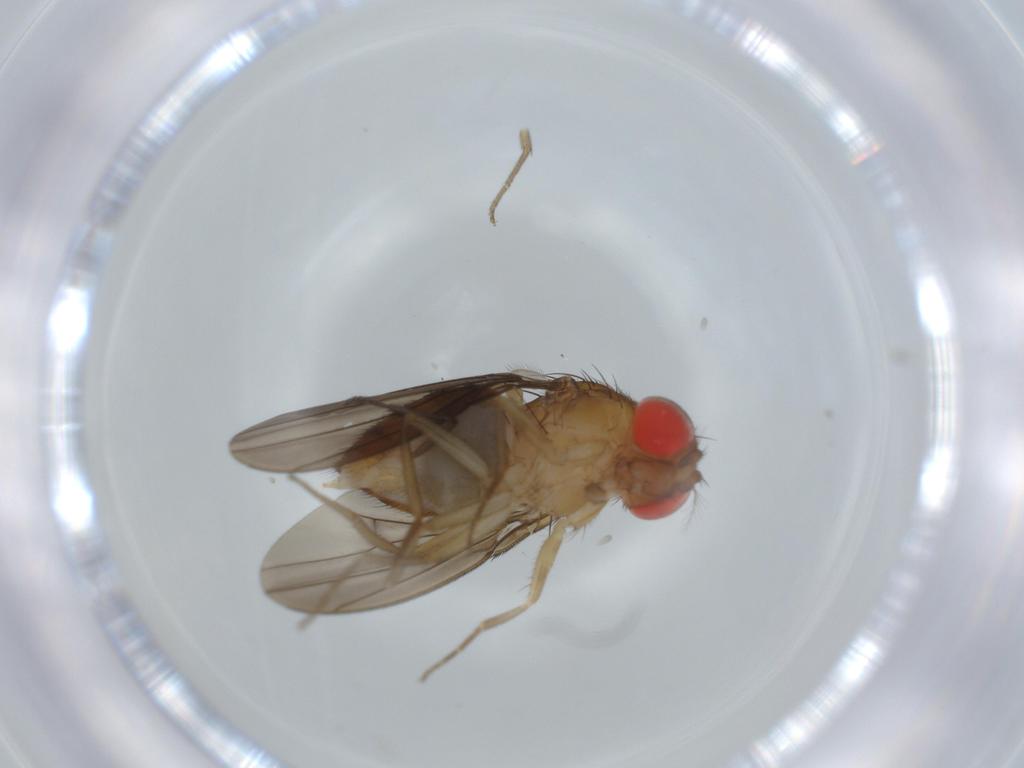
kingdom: Animalia
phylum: Arthropoda
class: Insecta
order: Diptera
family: Drosophilidae
